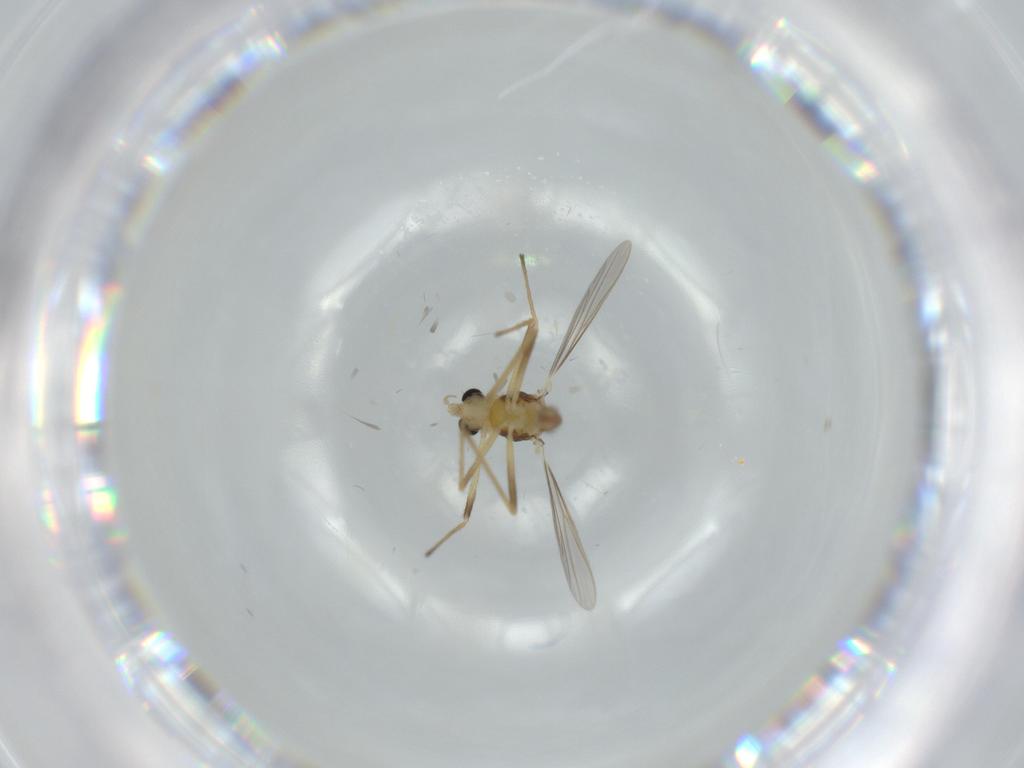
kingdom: Animalia
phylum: Arthropoda
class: Insecta
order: Diptera
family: Chironomidae
